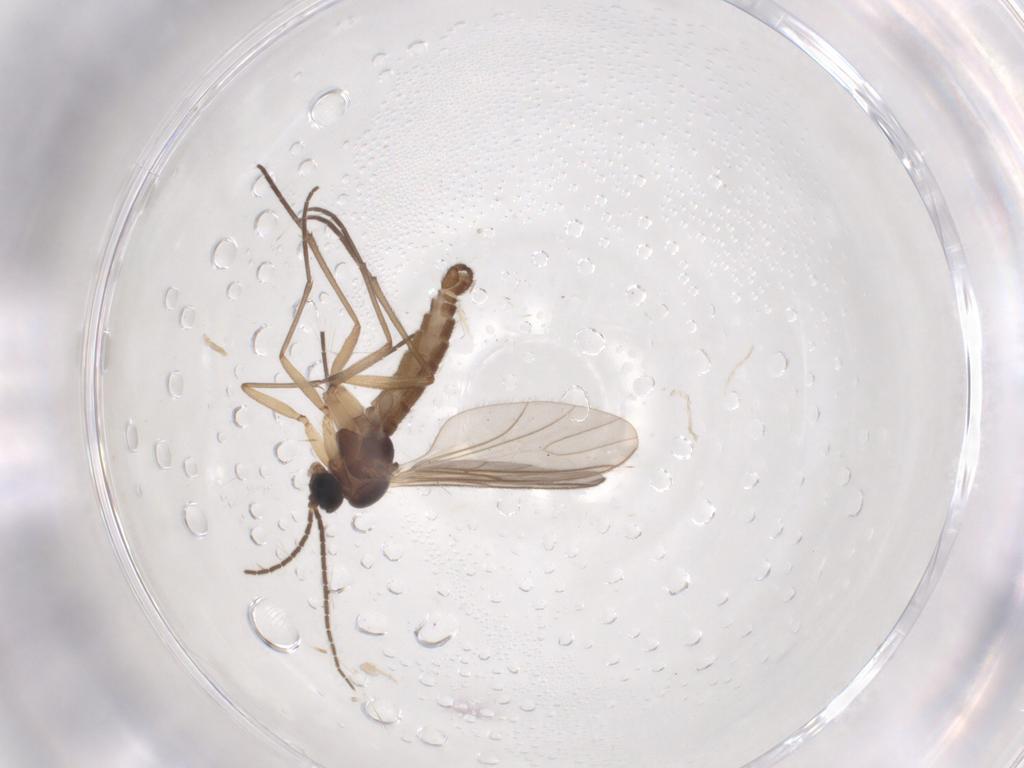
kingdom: Animalia
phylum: Arthropoda
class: Insecta
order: Diptera
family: Sciaridae
